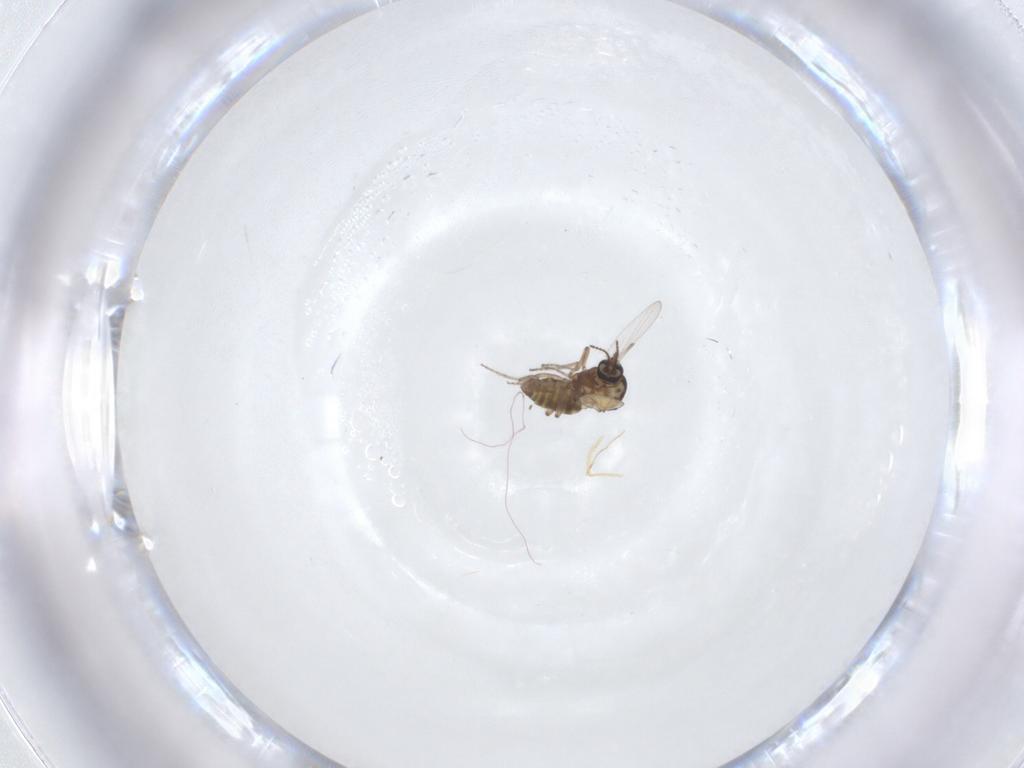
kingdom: Animalia
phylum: Arthropoda
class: Insecta
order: Diptera
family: Ceratopogonidae
